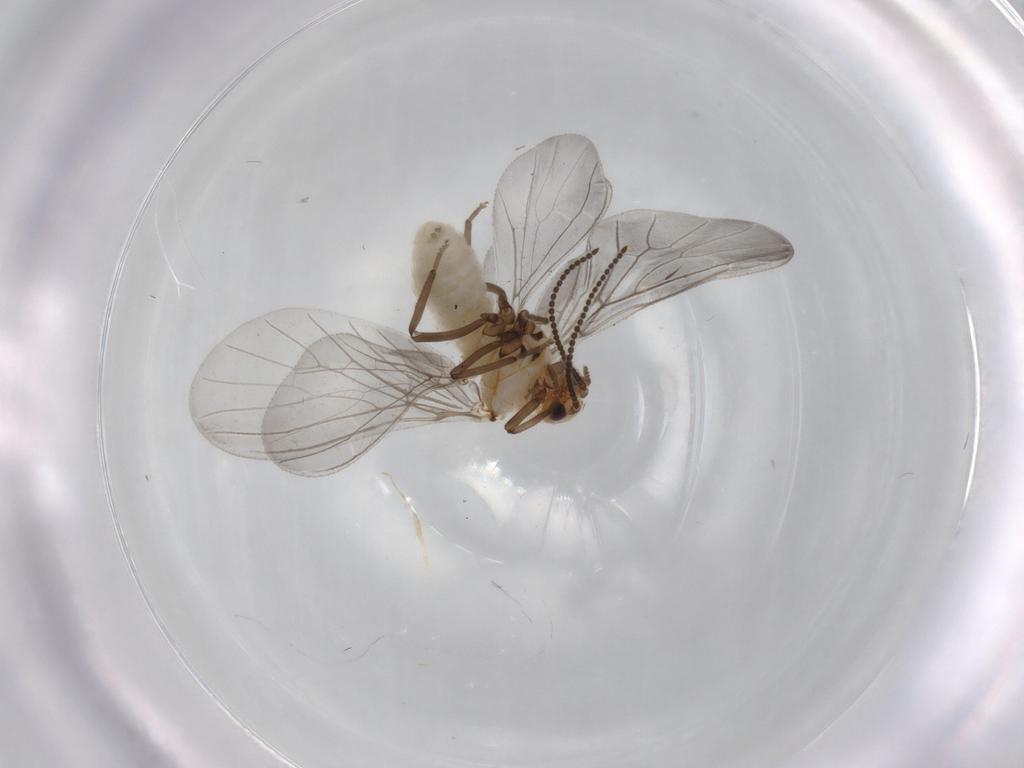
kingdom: Animalia
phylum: Arthropoda
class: Insecta
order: Neuroptera
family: Coniopterygidae
